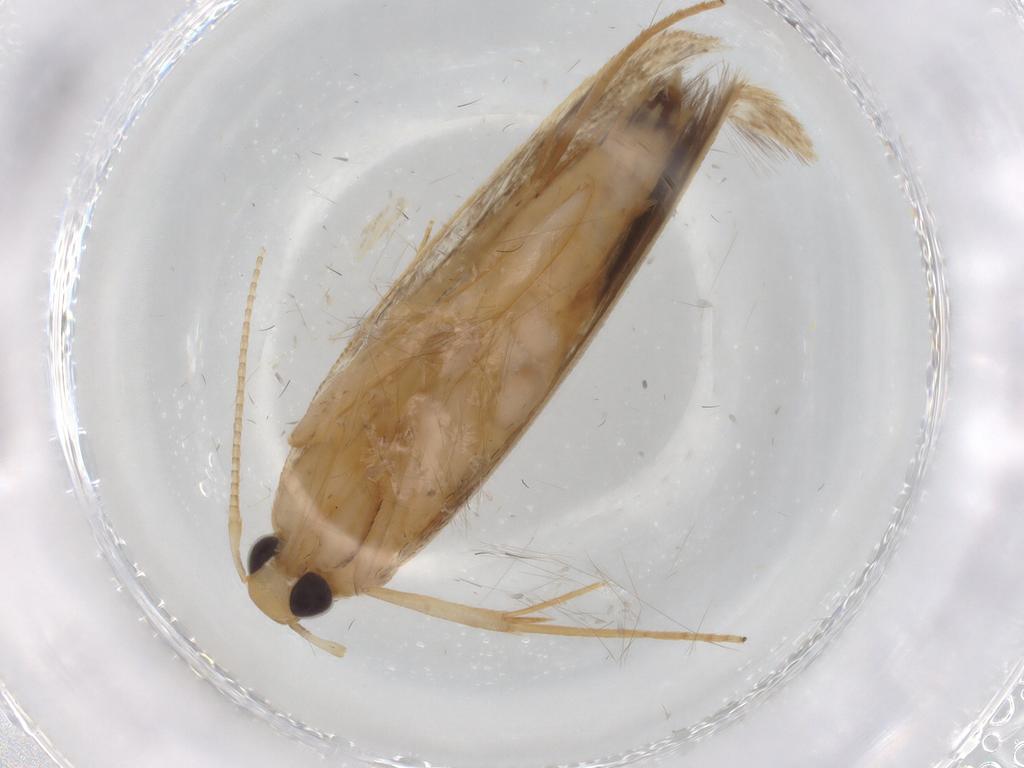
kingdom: Animalia
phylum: Arthropoda
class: Insecta
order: Lepidoptera
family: Coleophoridae
